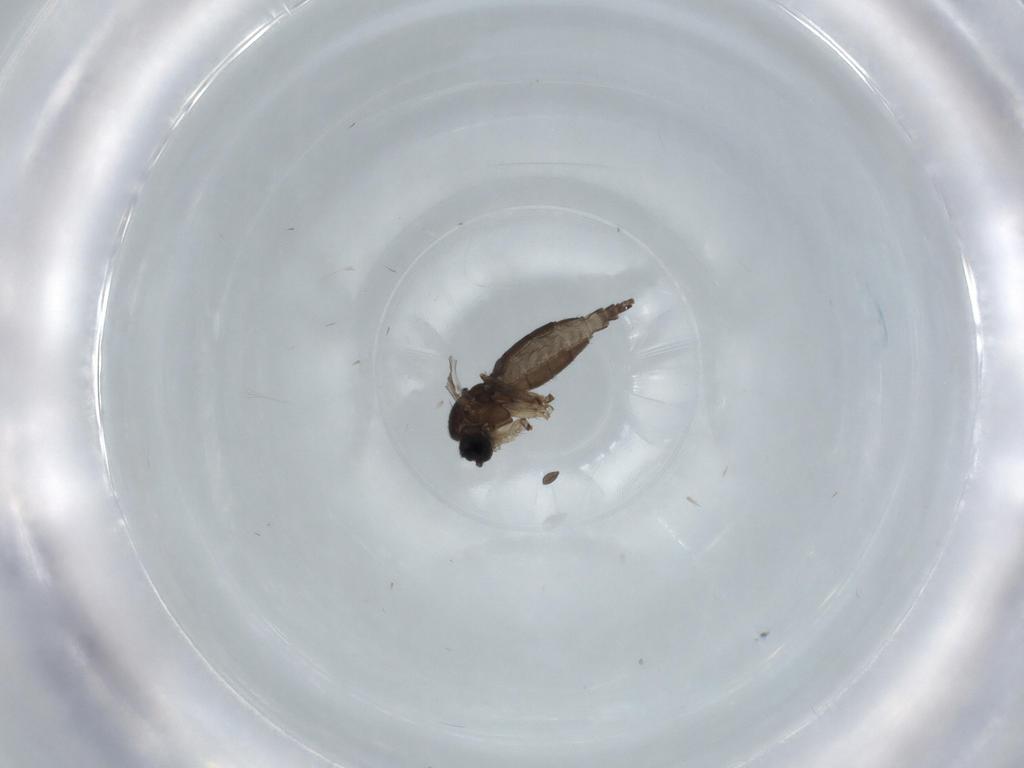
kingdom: Animalia
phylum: Arthropoda
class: Insecta
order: Diptera
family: Sciaridae
